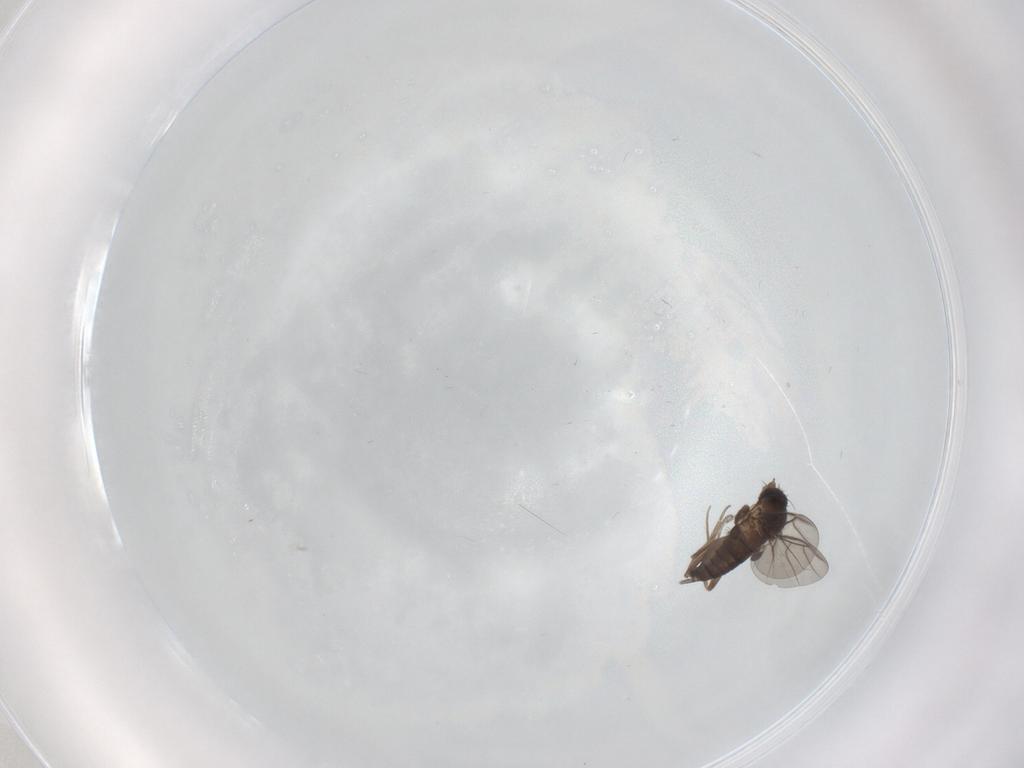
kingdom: Animalia
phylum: Arthropoda
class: Insecta
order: Diptera
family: Phoridae
